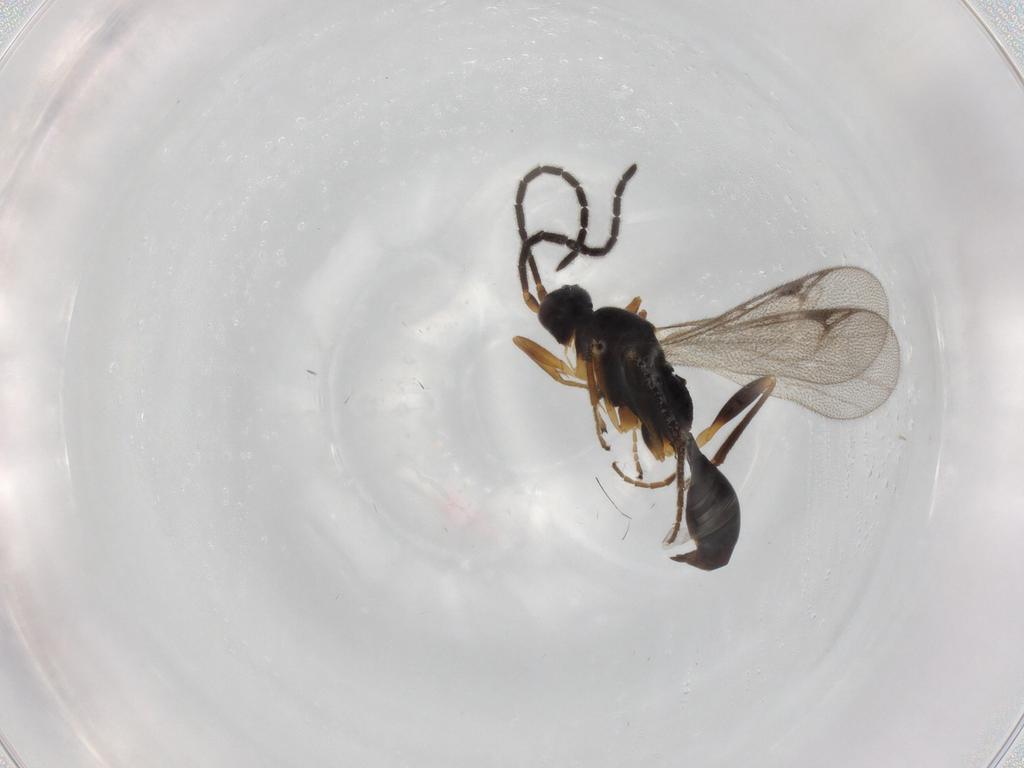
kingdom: Animalia
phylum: Arthropoda
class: Insecta
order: Hymenoptera
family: Proctotrupidae
